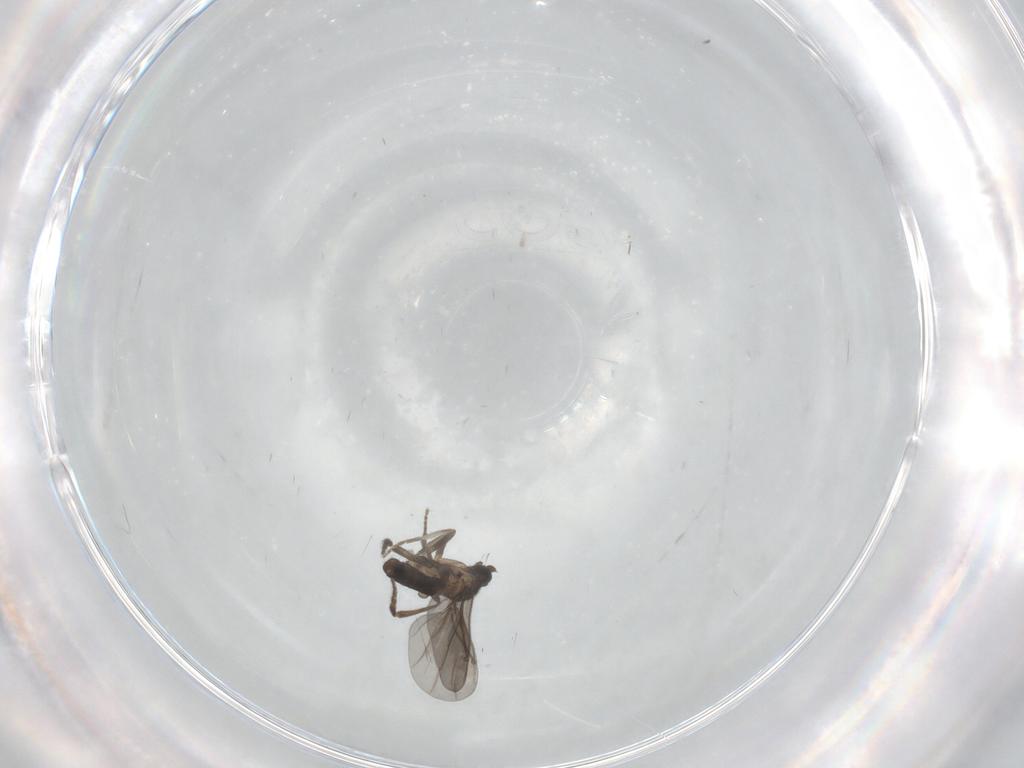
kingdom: Animalia
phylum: Arthropoda
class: Insecta
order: Diptera
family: Phoridae
